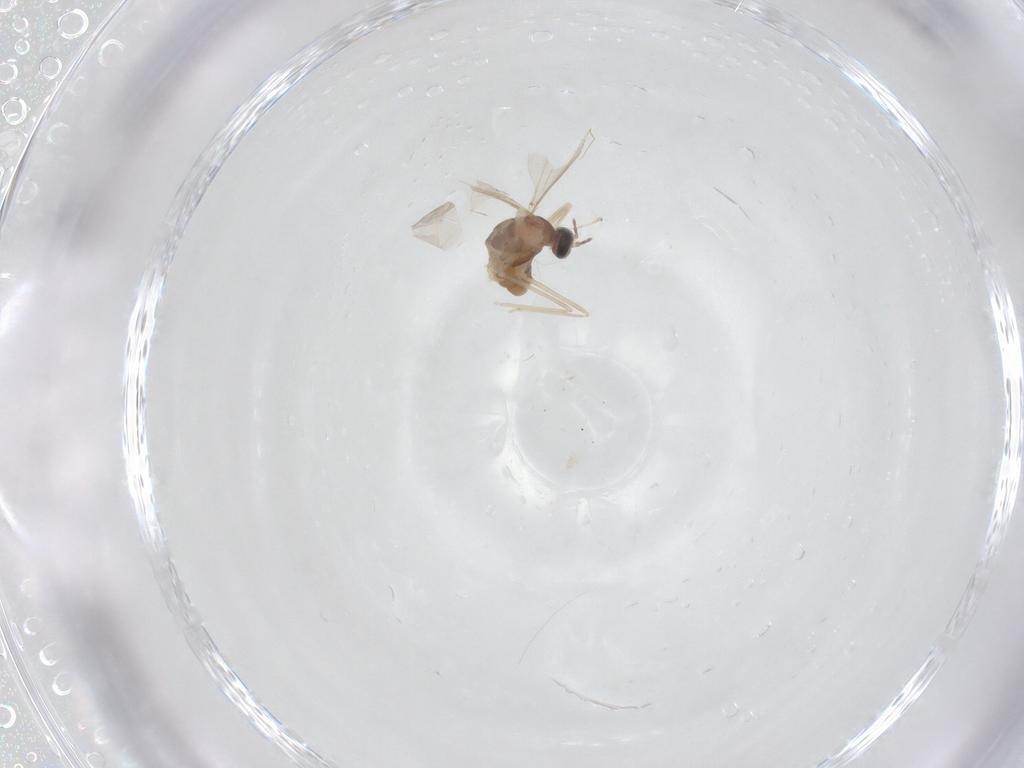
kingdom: Animalia
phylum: Arthropoda
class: Insecta
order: Diptera
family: Cecidomyiidae
